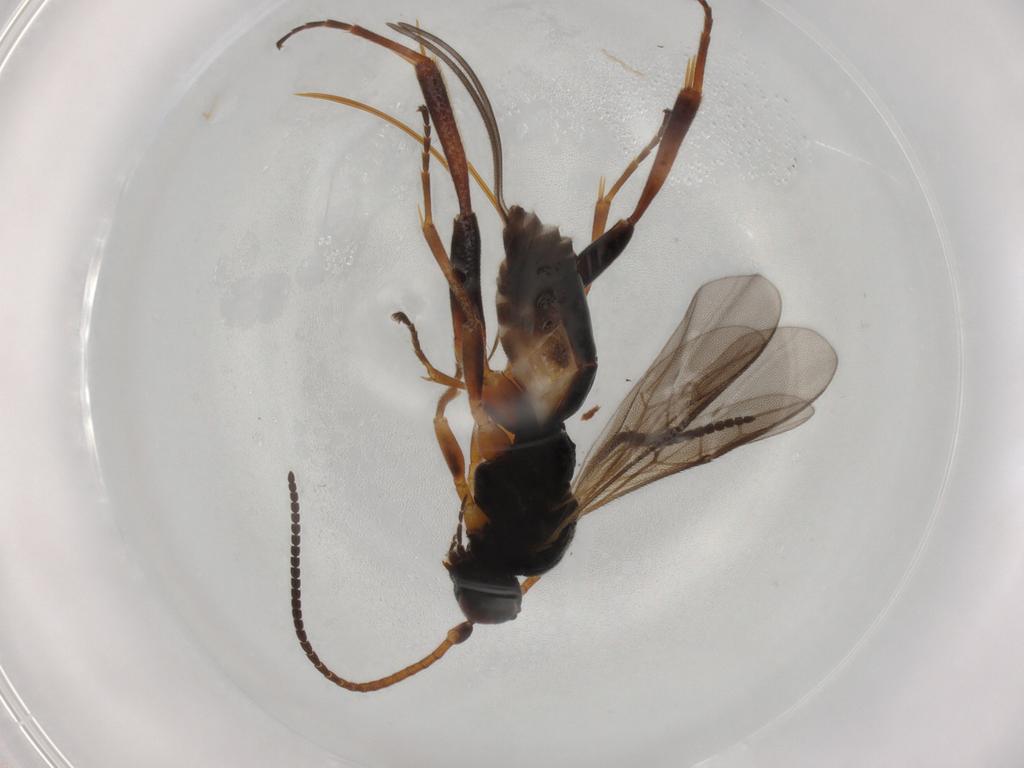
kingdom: Animalia
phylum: Arthropoda
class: Insecta
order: Hymenoptera
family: Braconidae
